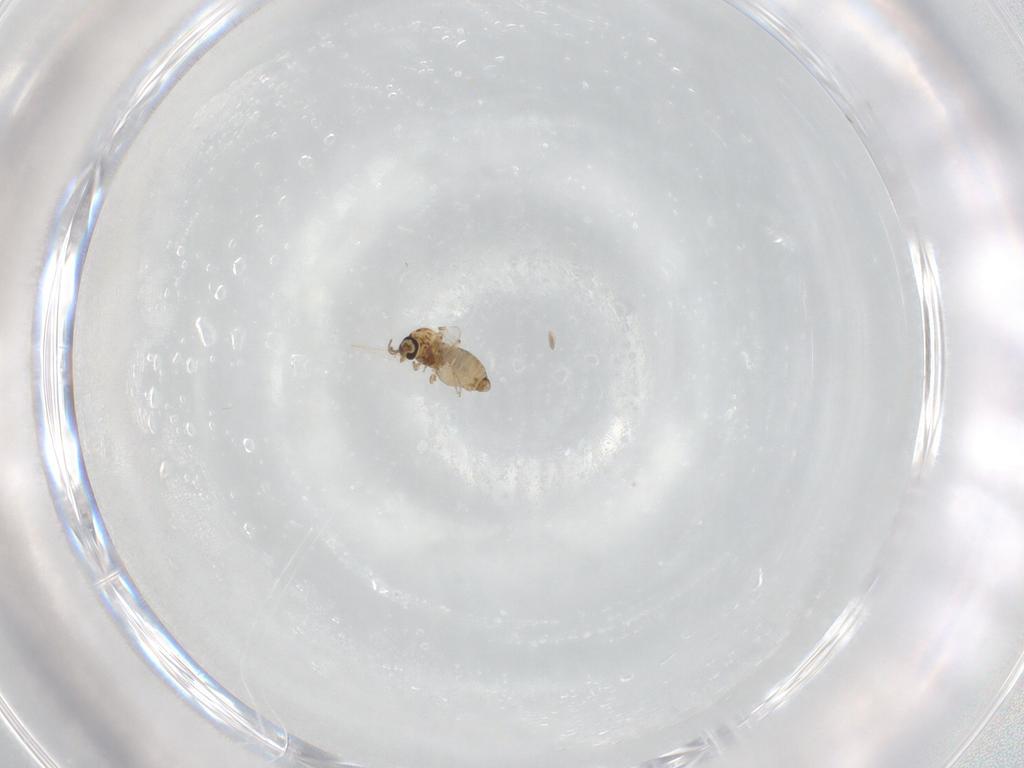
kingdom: Animalia
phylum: Arthropoda
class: Insecta
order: Diptera
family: Ceratopogonidae
